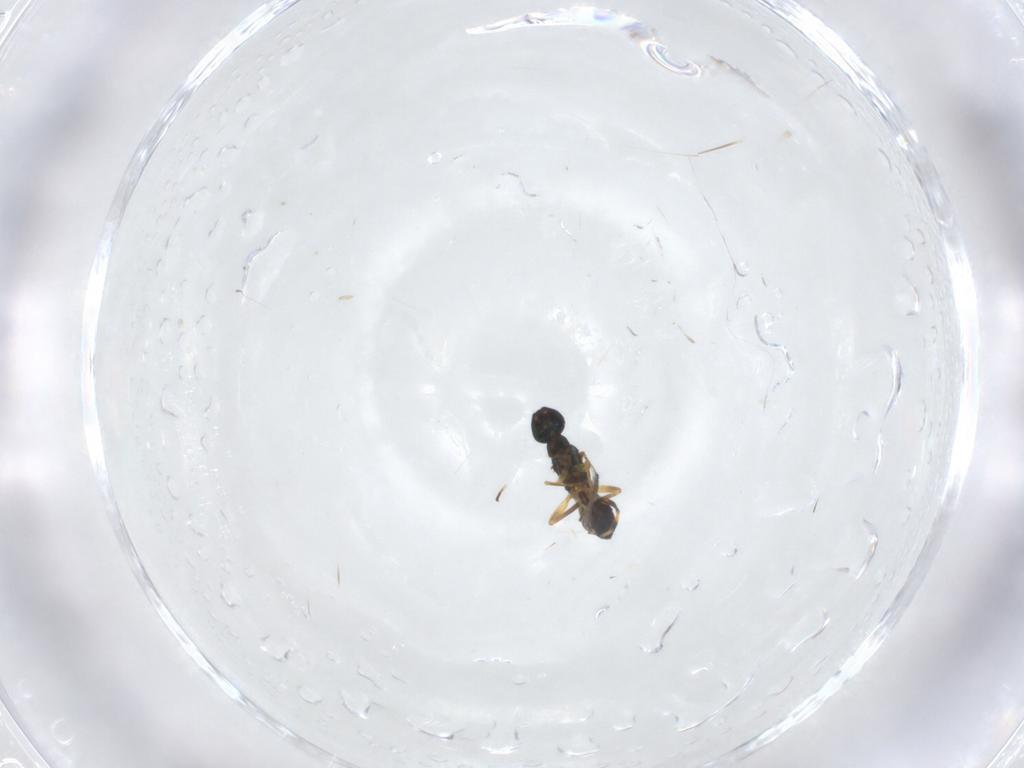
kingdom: Animalia
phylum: Arthropoda
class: Insecta
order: Hymenoptera
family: Eupelmidae
